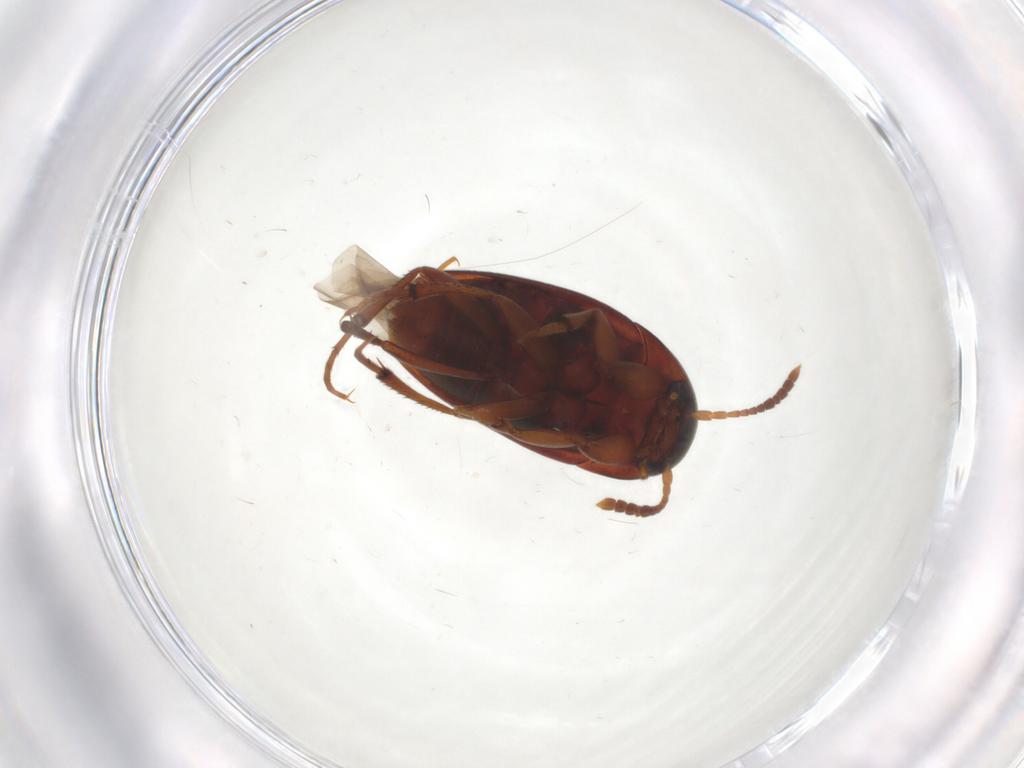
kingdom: Animalia
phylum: Arthropoda
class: Insecta
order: Coleoptera
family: Leiodidae
